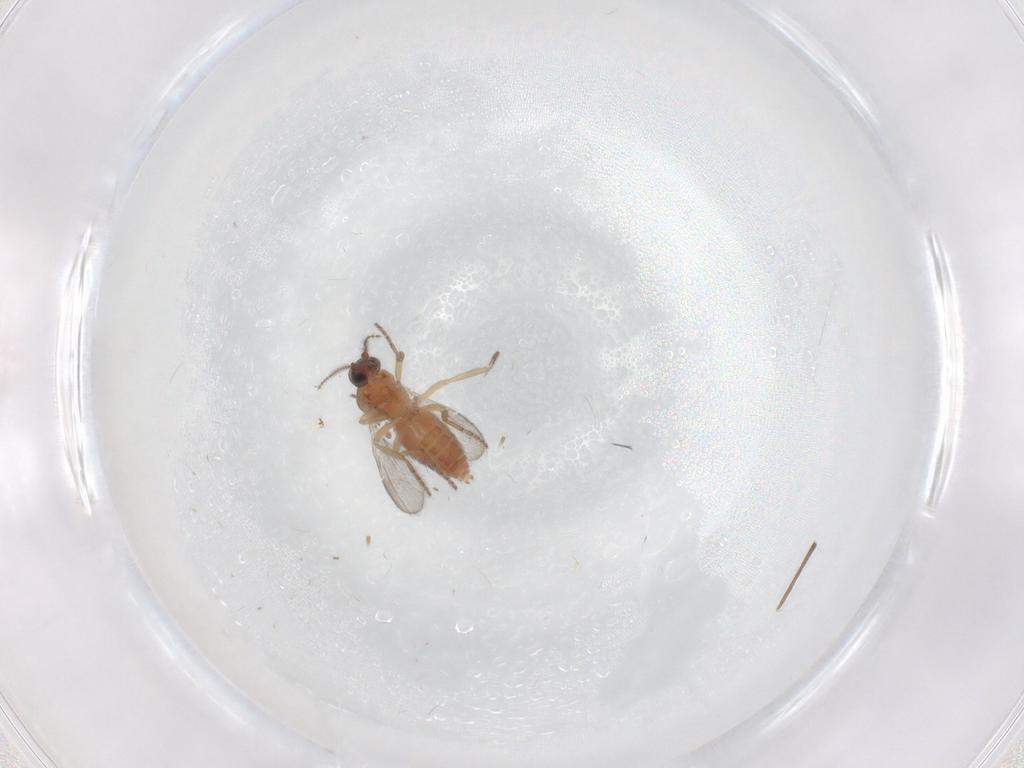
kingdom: Animalia
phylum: Arthropoda
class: Insecta
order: Diptera
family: Ceratopogonidae
